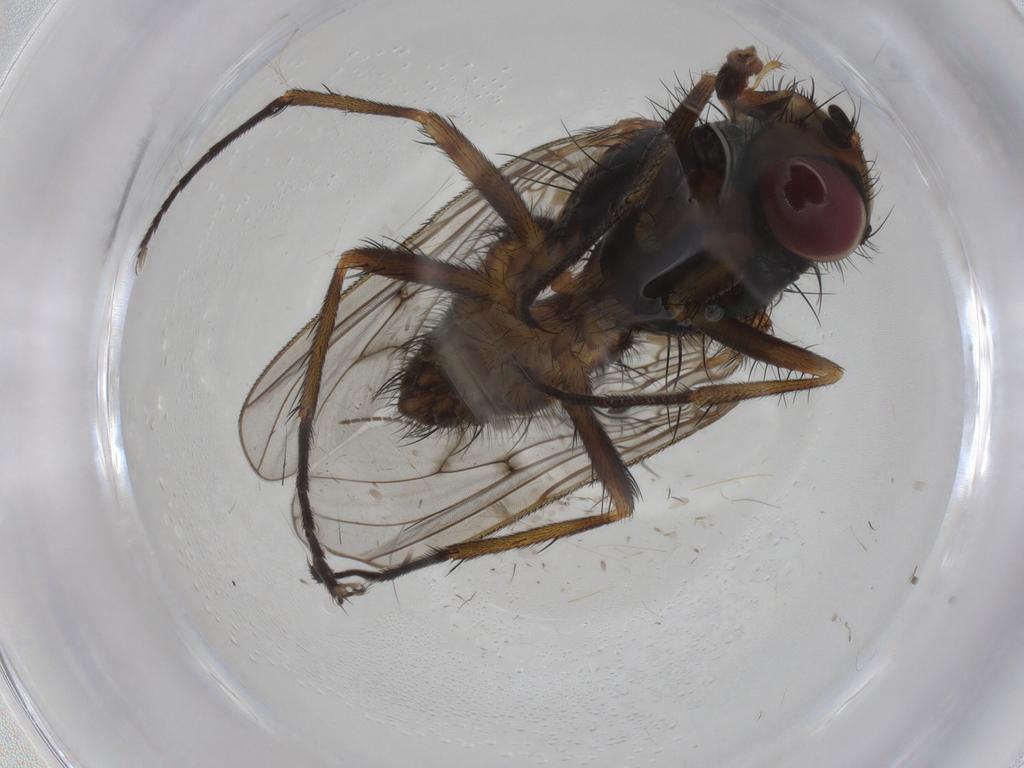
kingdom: Animalia
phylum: Arthropoda
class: Insecta
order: Diptera
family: Anthomyiidae
